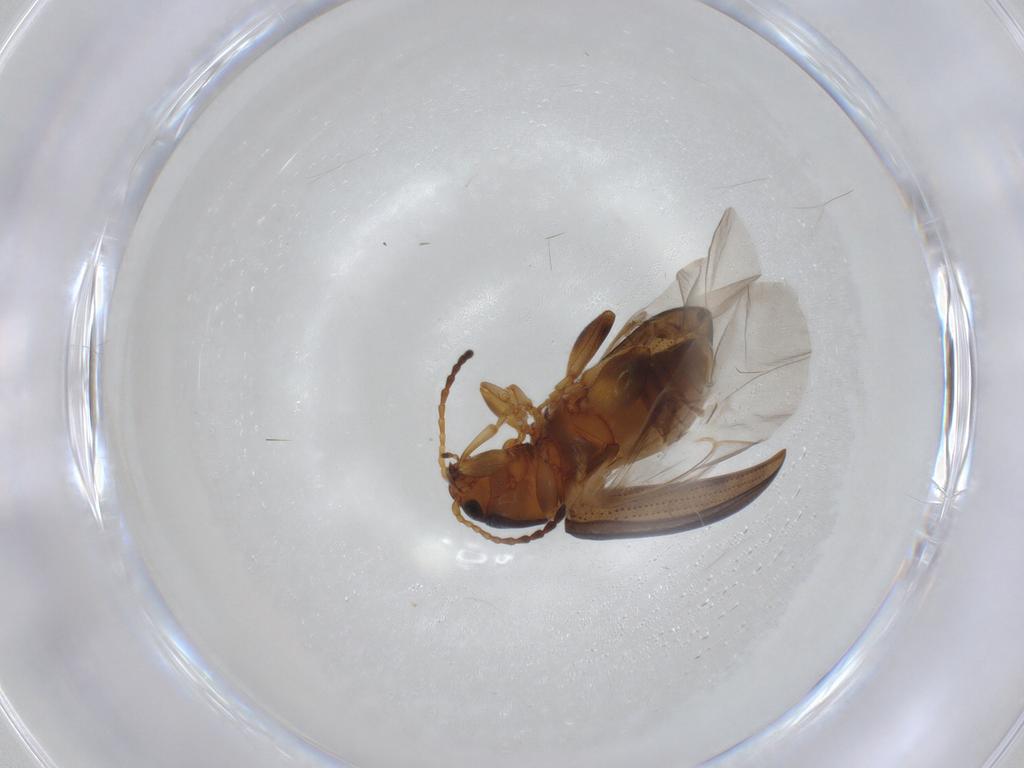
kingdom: Animalia
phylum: Arthropoda
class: Insecta
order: Coleoptera
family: Chrysomelidae
